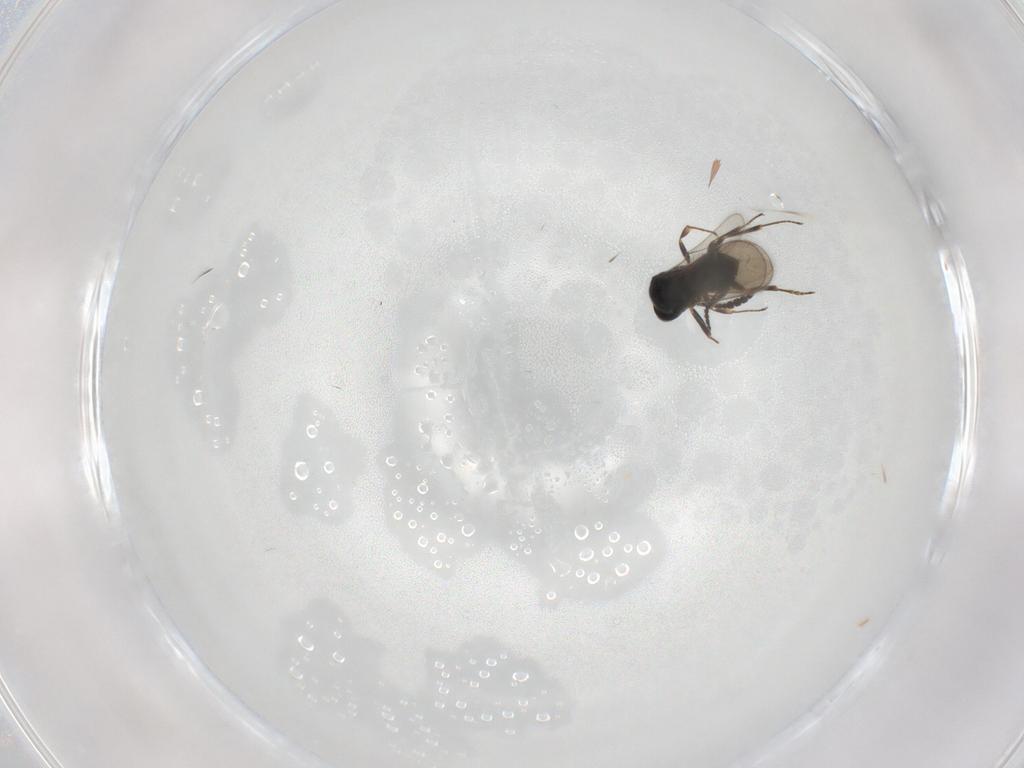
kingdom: Animalia
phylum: Arthropoda
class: Insecta
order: Hymenoptera
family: Scelionidae
